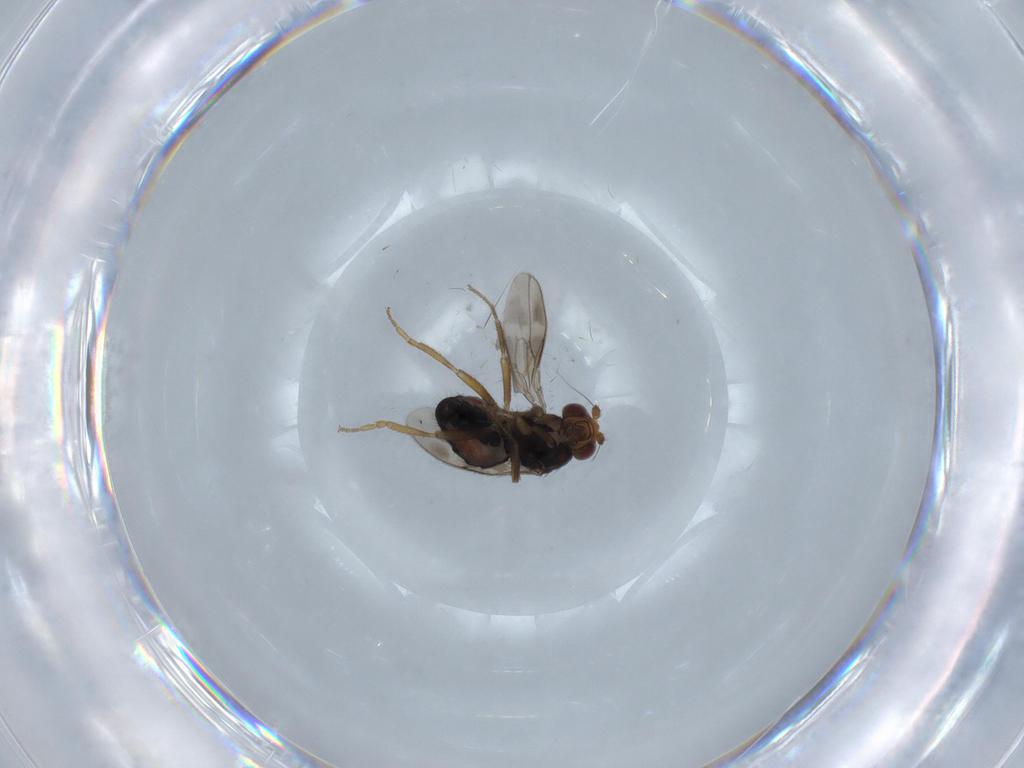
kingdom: Animalia
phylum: Arthropoda
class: Insecta
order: Diptera
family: Sphaeroceridae
